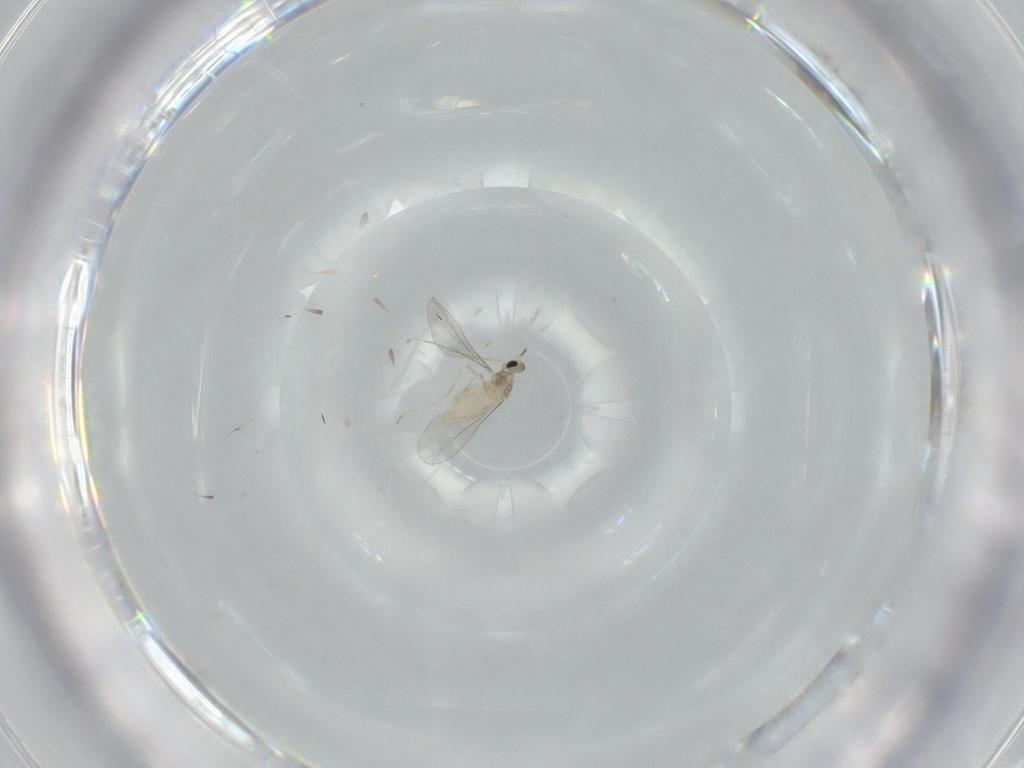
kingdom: Animalia
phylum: Arthropoda
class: Insecta
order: Diptera
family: Cecidomyiidae
